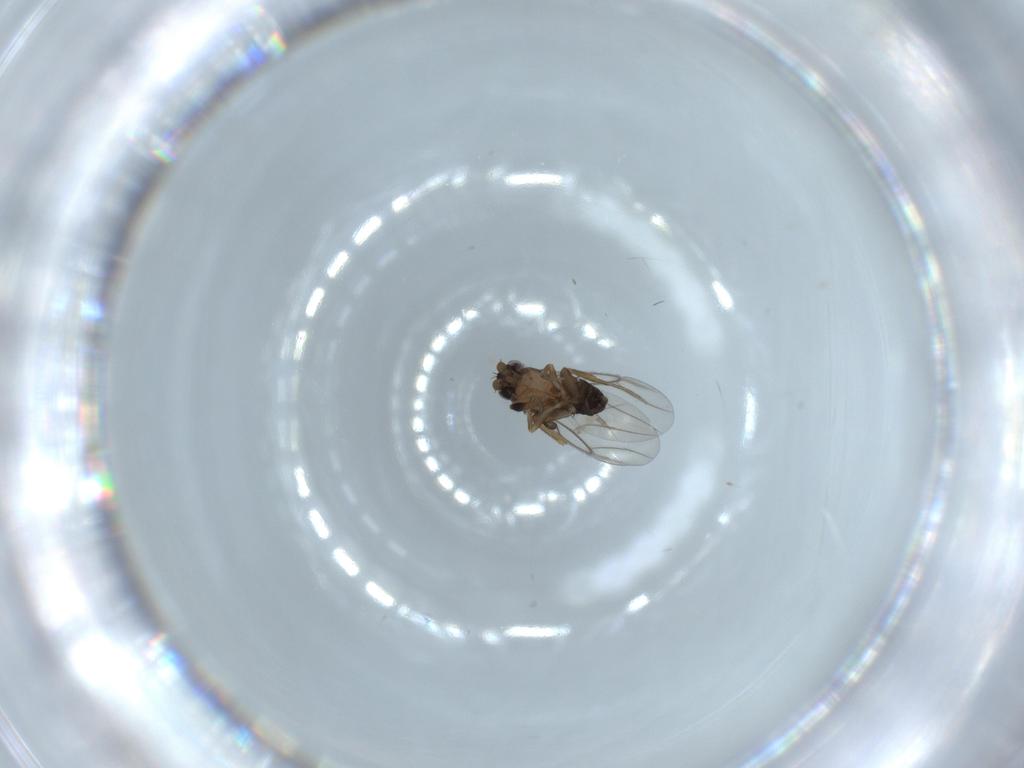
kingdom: Animalia
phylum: Arthropoda
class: Insecta
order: Diptera
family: Phoridae
